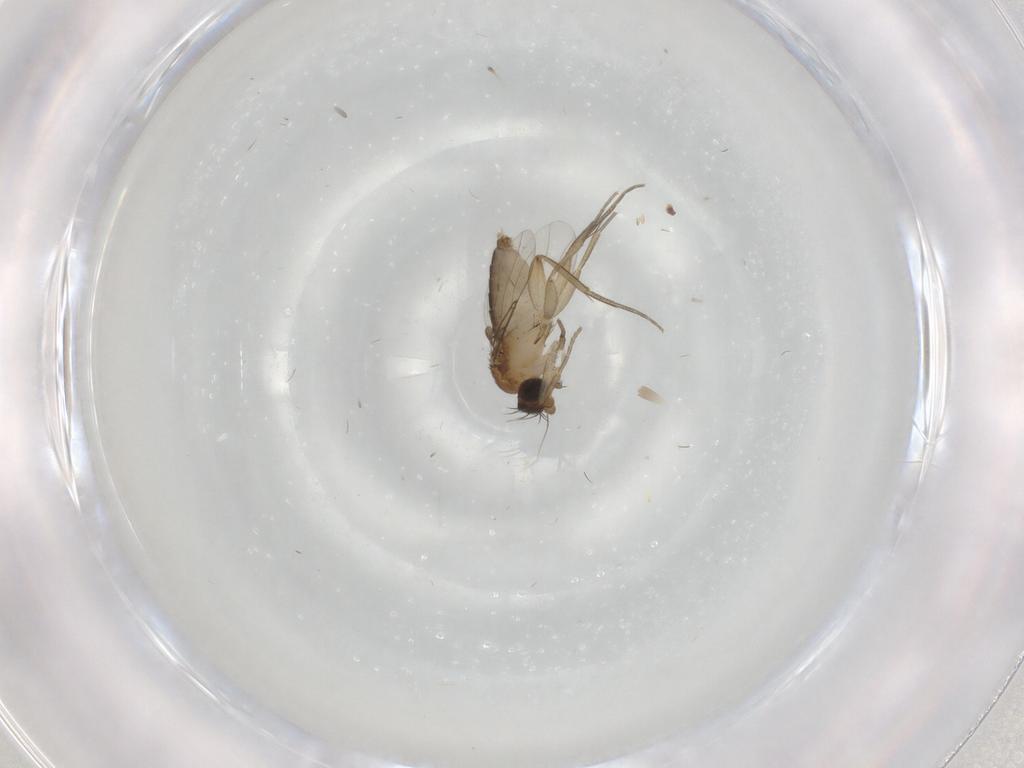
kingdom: Animalia
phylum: Arthropoda
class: Insecta
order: Diptera
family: Phoridae
